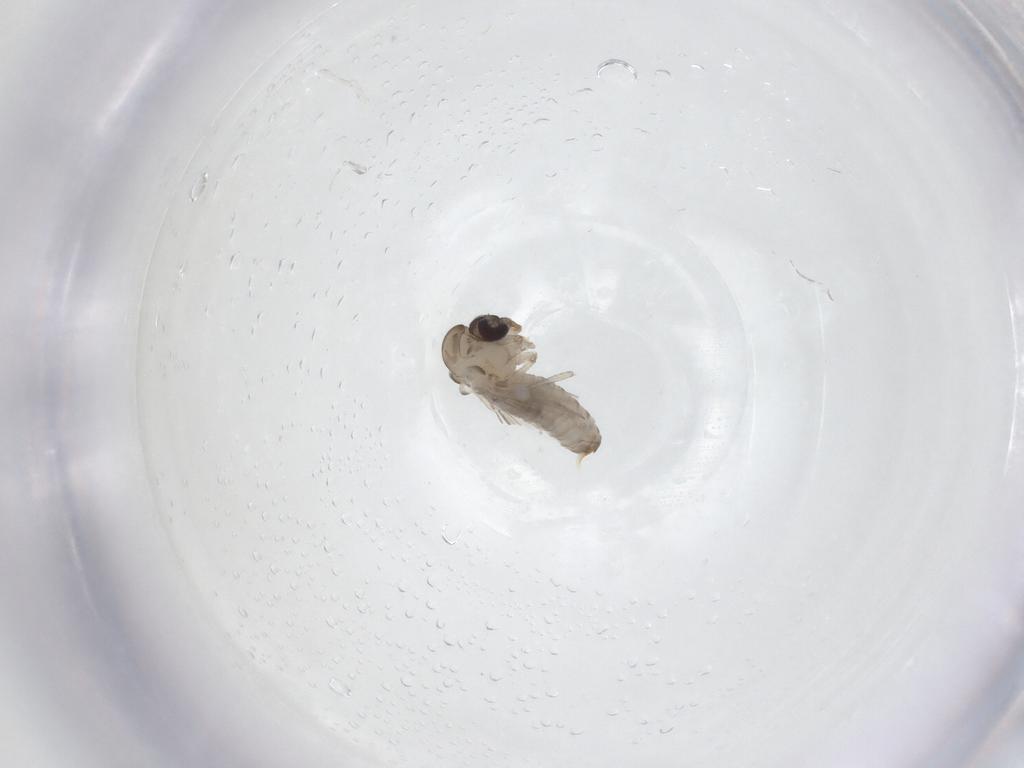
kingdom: Animalia
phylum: Arthropoda
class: Insecta
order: Diptera
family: Psychodidae
